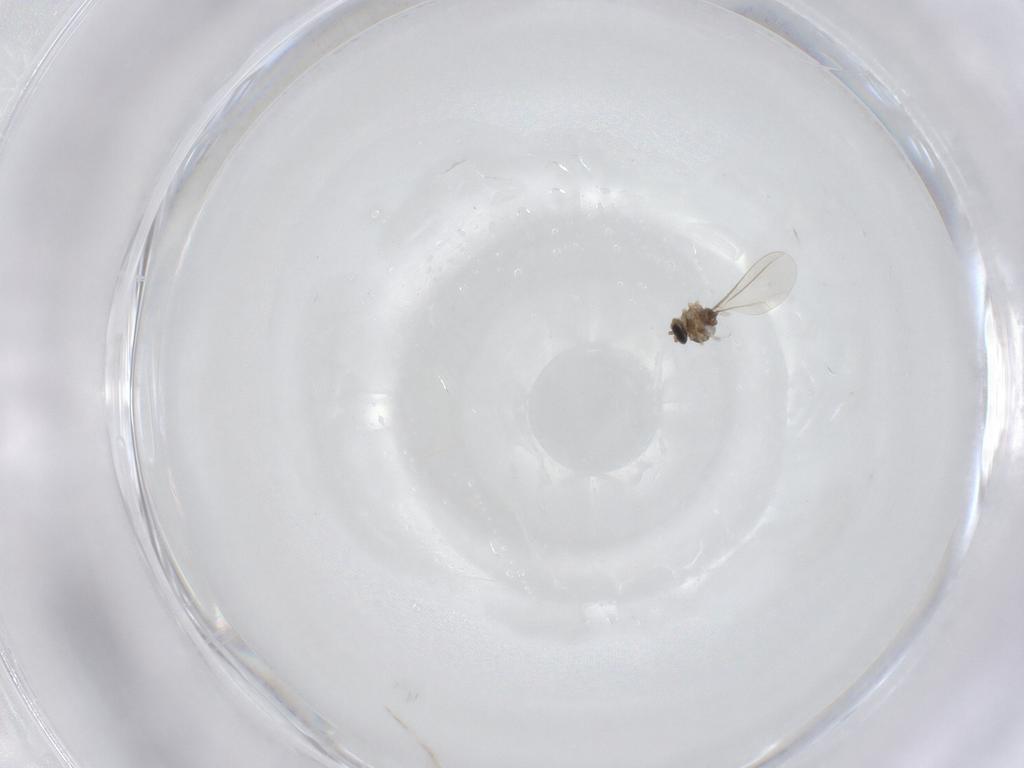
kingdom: Animalia
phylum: Arthropoda
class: Insecta
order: Diptera
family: Cecidomyiidae
